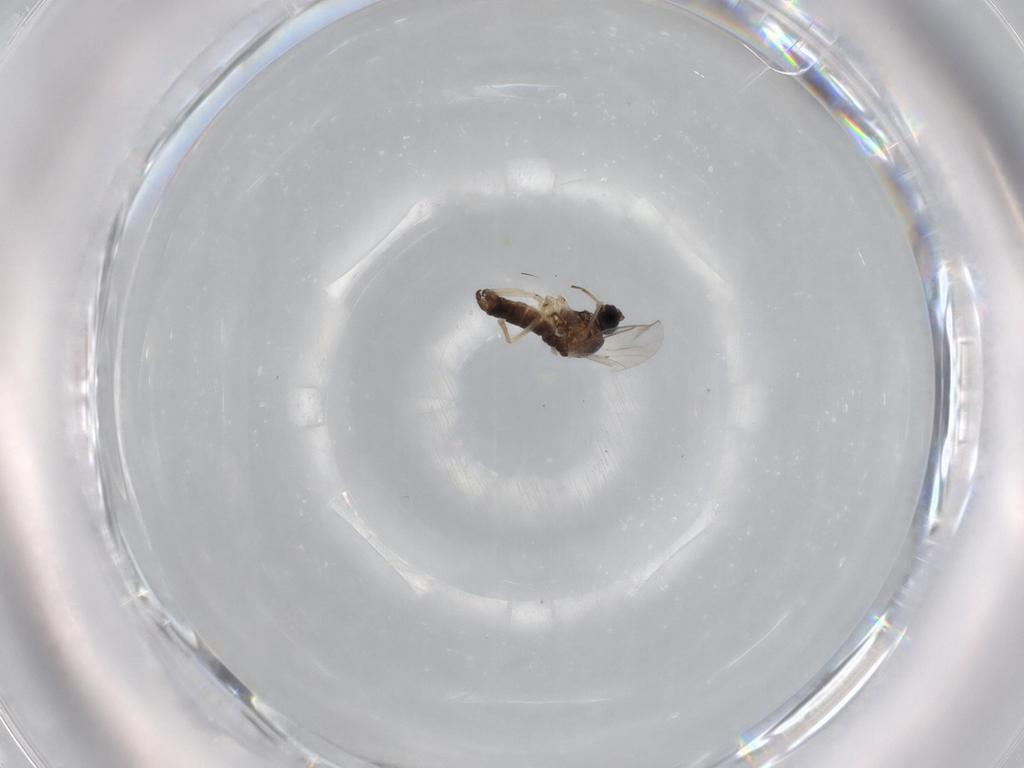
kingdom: Animalia
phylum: Arthropoda
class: Insecta
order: Diptera
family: Sciaridae
